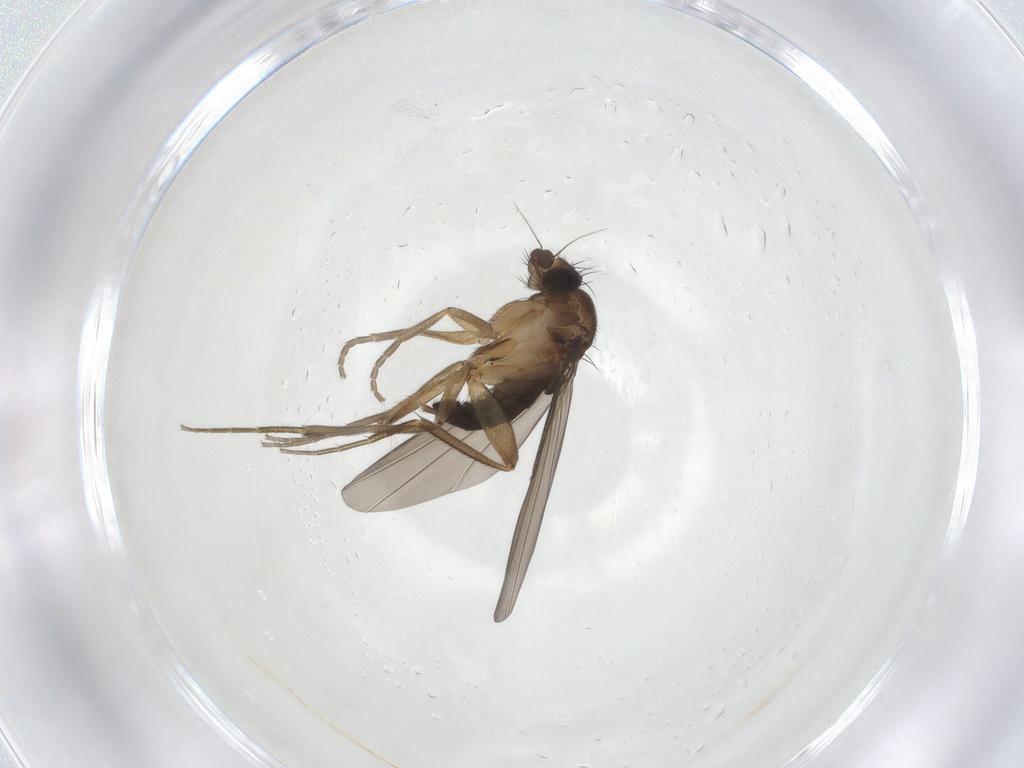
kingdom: Animalia
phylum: Arthropoda
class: Insecta
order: Diptera
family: Phoridae
